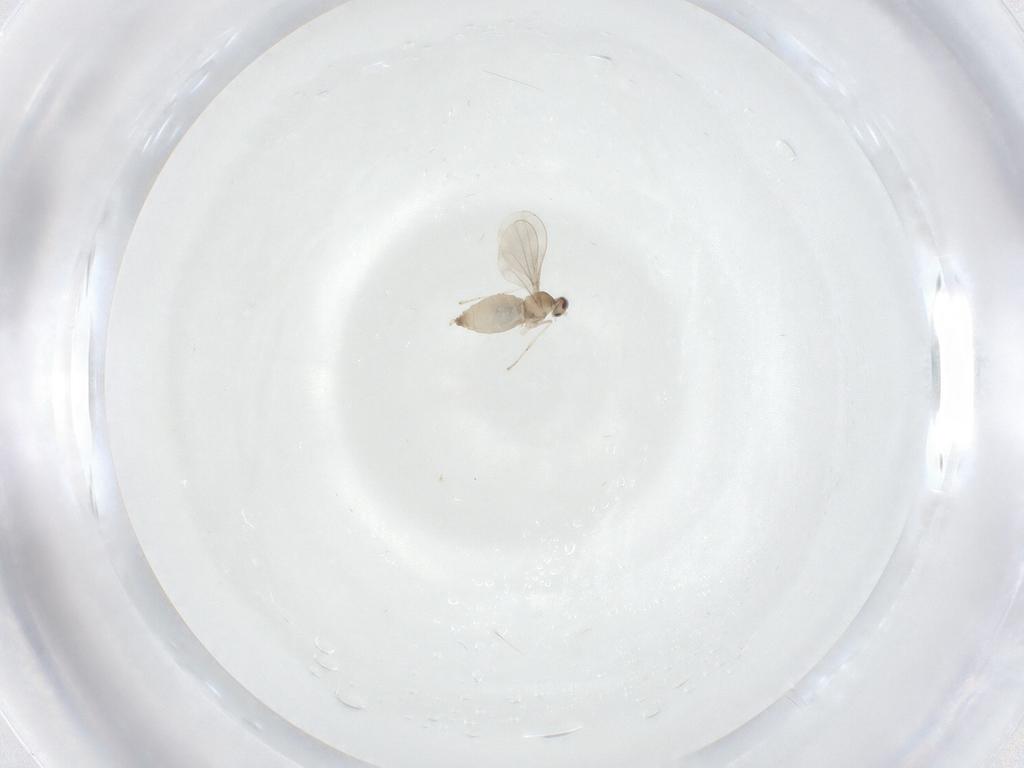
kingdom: Animalia
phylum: Arthropoda
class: Insecta
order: Diptera
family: Cecidomyiidae
